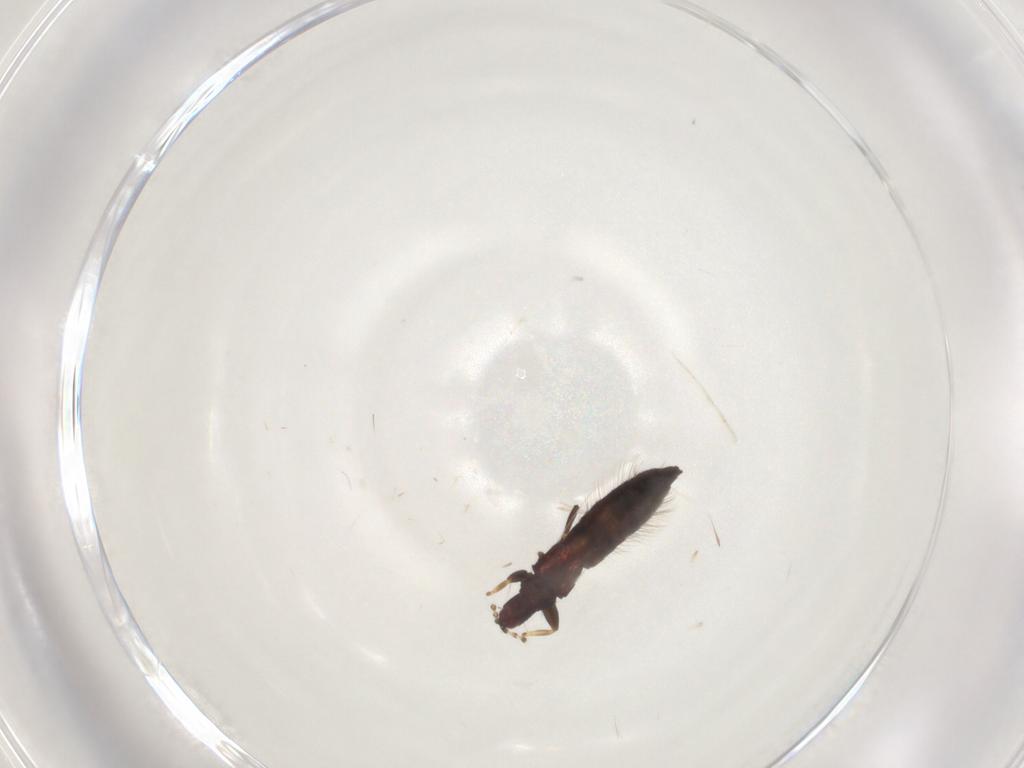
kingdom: Animalia
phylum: Arthropoda
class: Insecta
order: Thysanoptera
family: Phlaeothripidae
